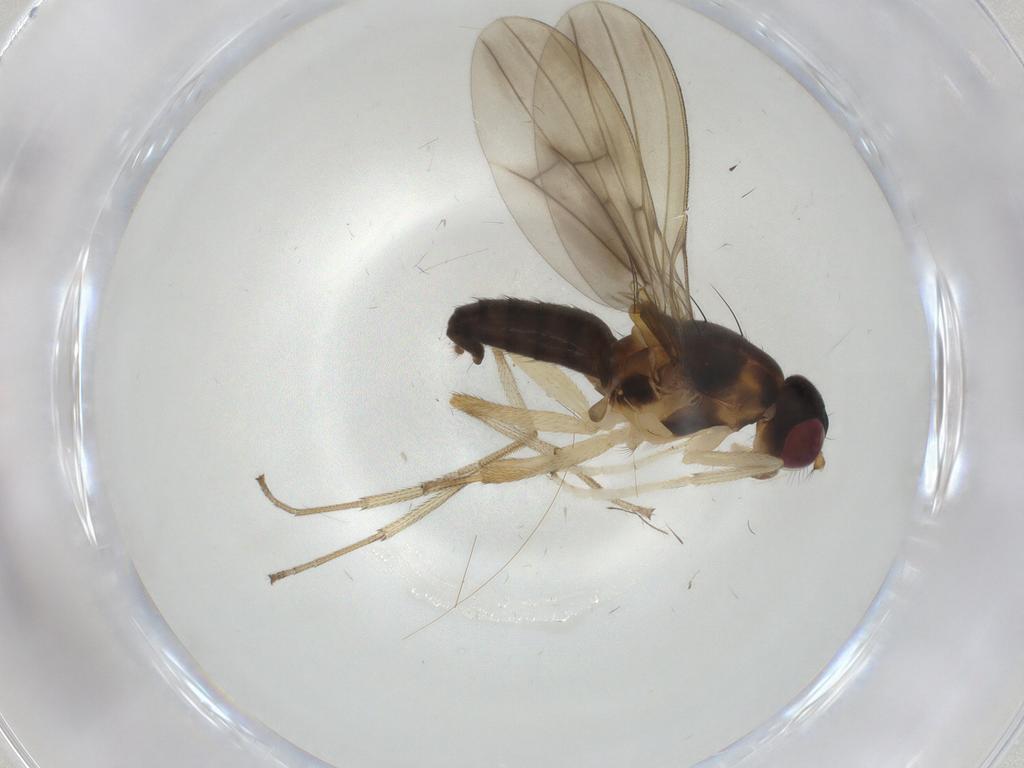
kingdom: Animalia
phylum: Arthropoda
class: Insecta
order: Diptera
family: Lauxaniidae
